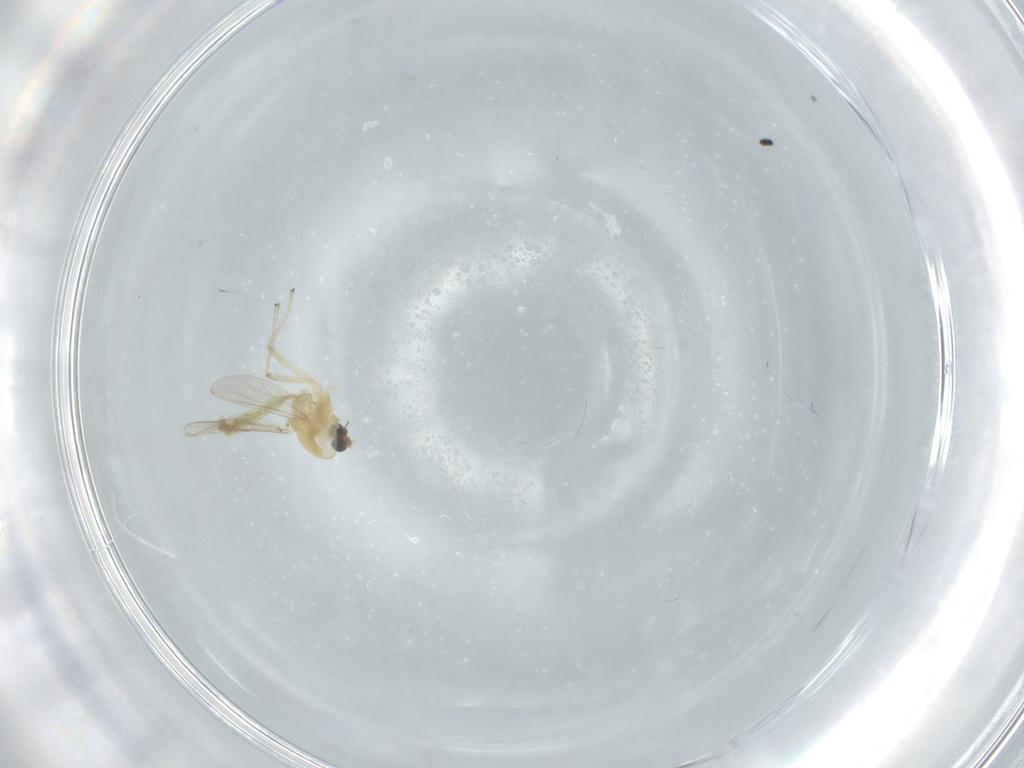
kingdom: Animalia
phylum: Arthropoda
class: Insecta
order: Diptera
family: Chironomidae
